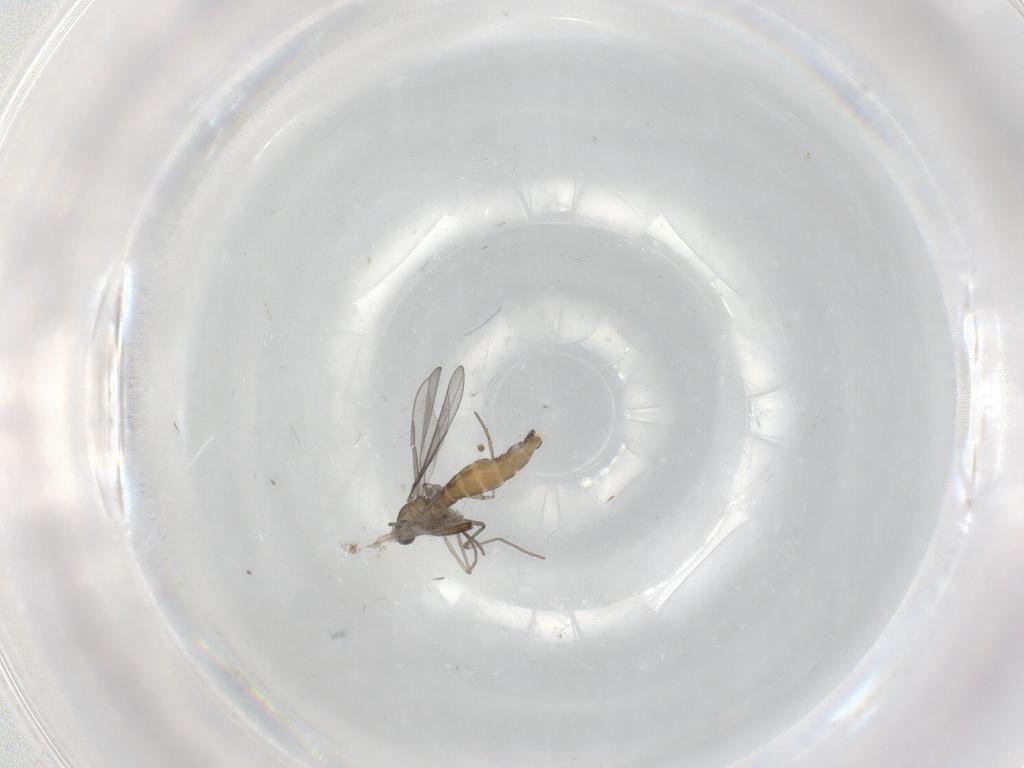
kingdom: Animalia
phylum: Arthropoda
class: Insecta
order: Diptera
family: Cecidomyiidae
